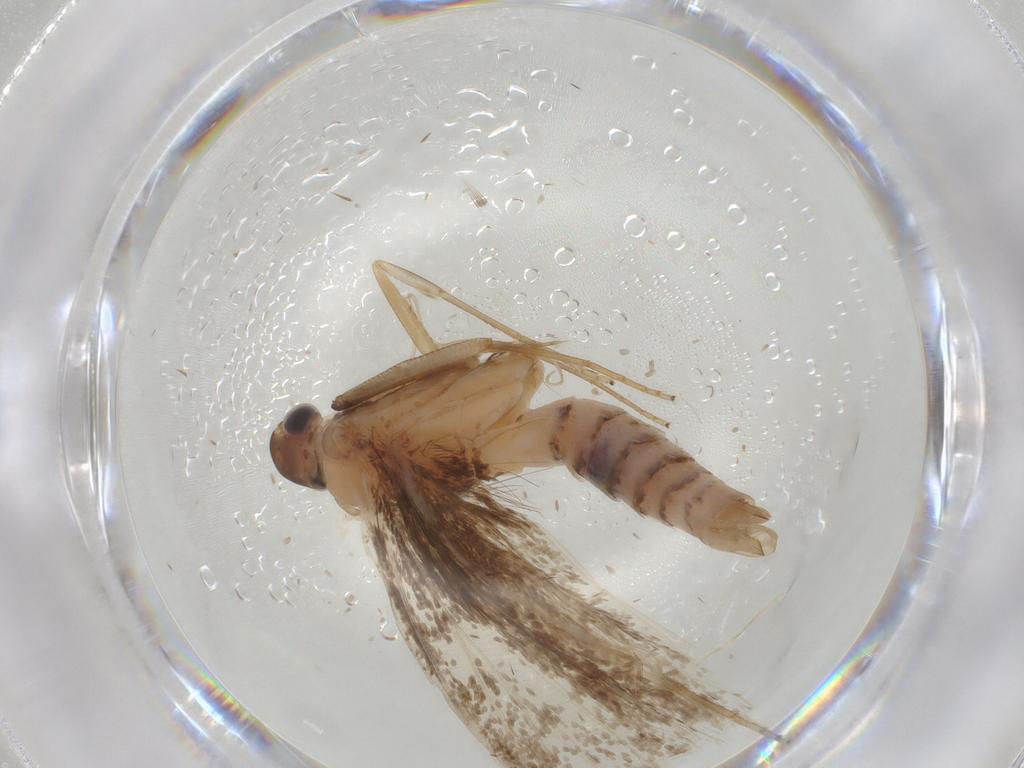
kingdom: Animalia
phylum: Arthropoda
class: Insecta
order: Lepidoptera
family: Gelechiidae
